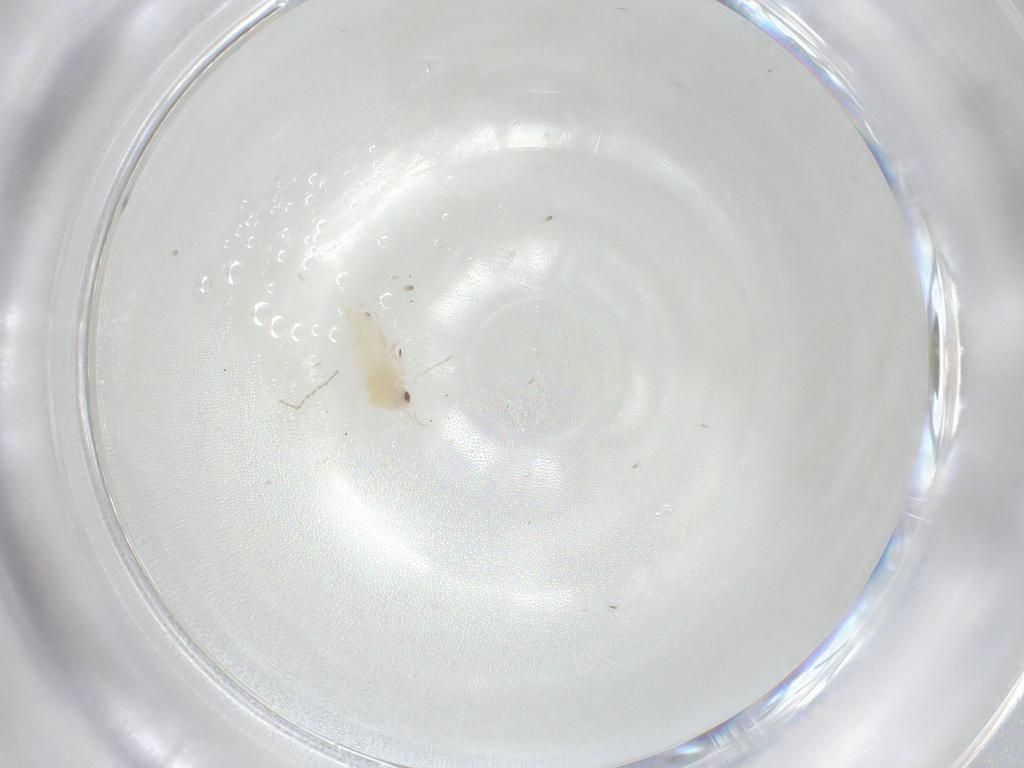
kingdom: Animalia
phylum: Arthropoda
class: Insecta
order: Hemiptera
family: Aleyrodidae
